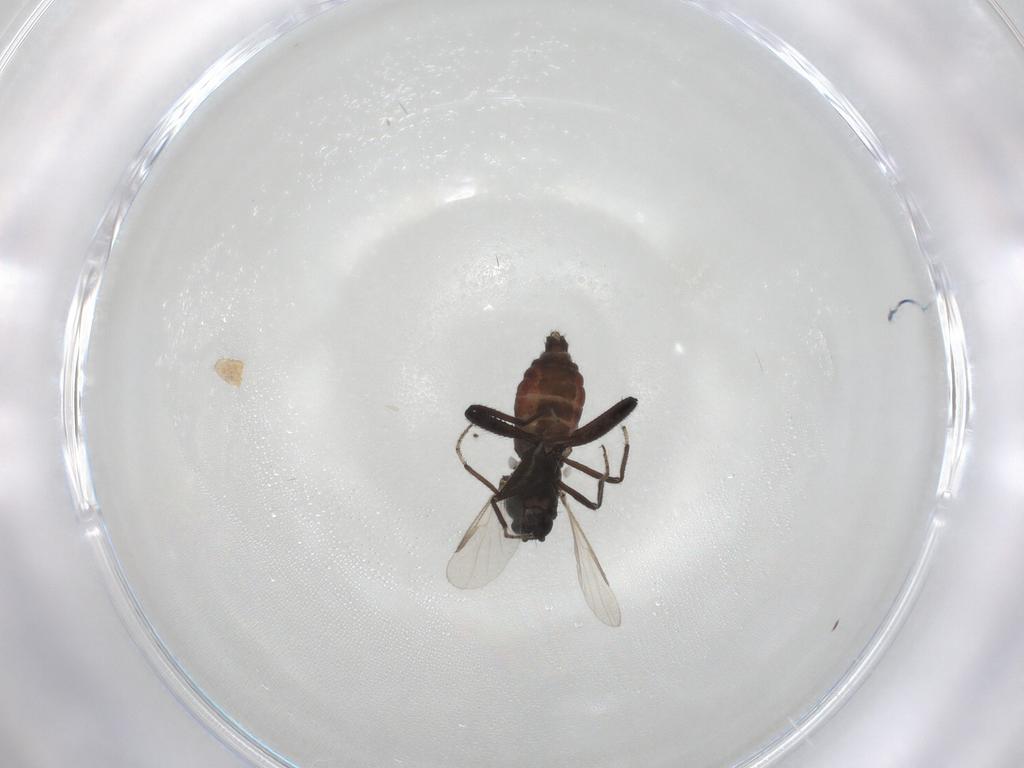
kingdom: Animalia
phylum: Arthropoda
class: Insecta
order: Diptera
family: Ceratopogonidae
